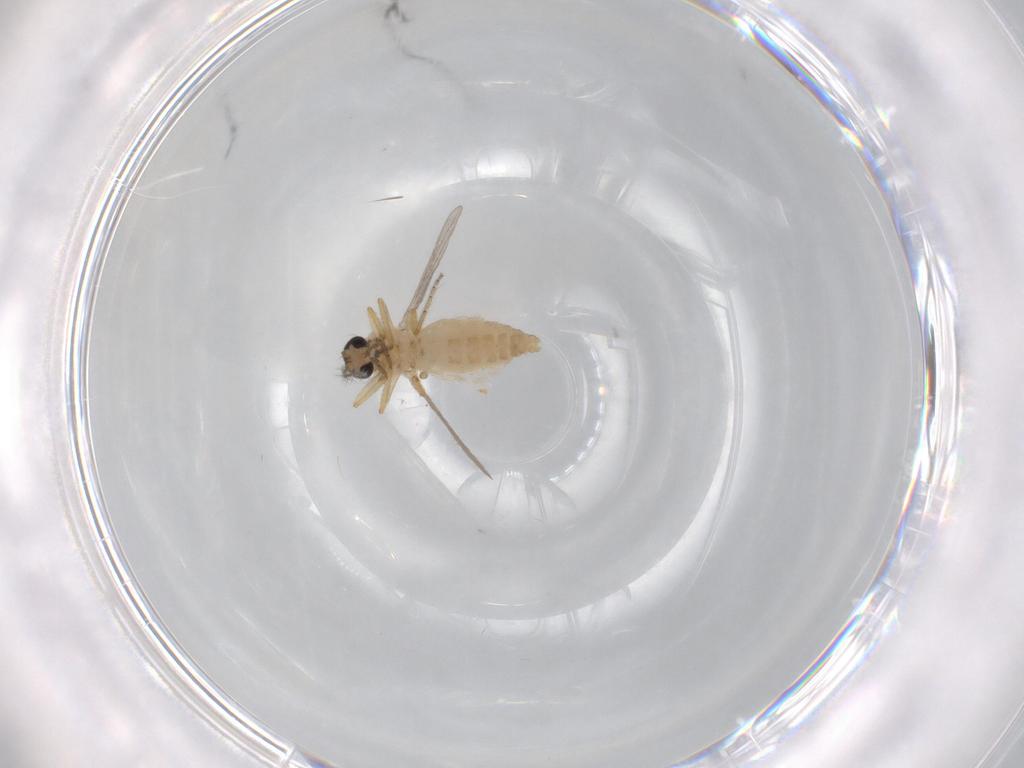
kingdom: Animalia
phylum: Arthropoda
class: Insecta
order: Diptera
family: Ceratopogonidae
